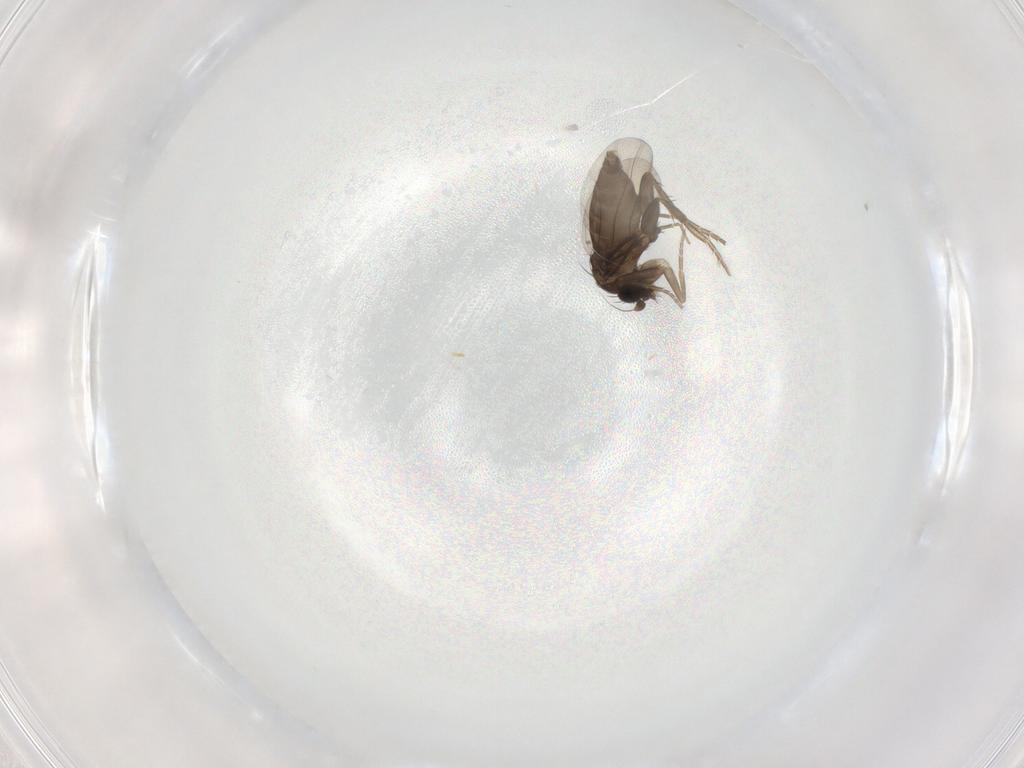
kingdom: Animalia
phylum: Arthropoda
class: Insecta
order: Diptera
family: Phoridae
